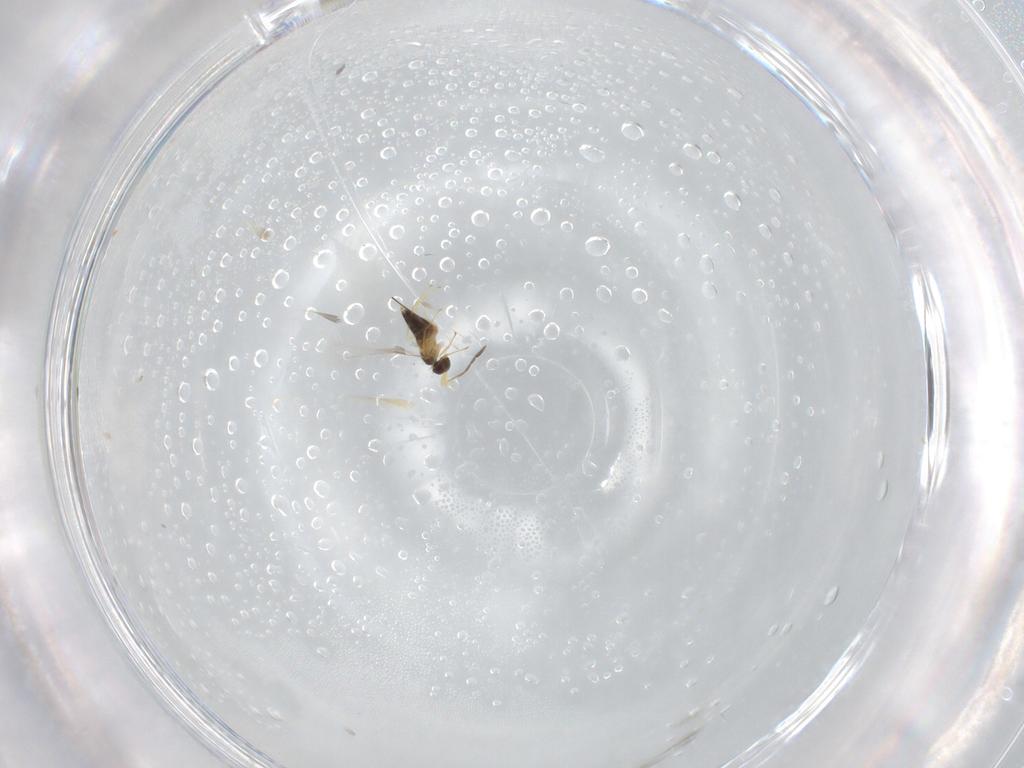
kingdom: Animalia
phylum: Arthropoda
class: Insecta
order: Hymenoptera
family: Mymaridae
